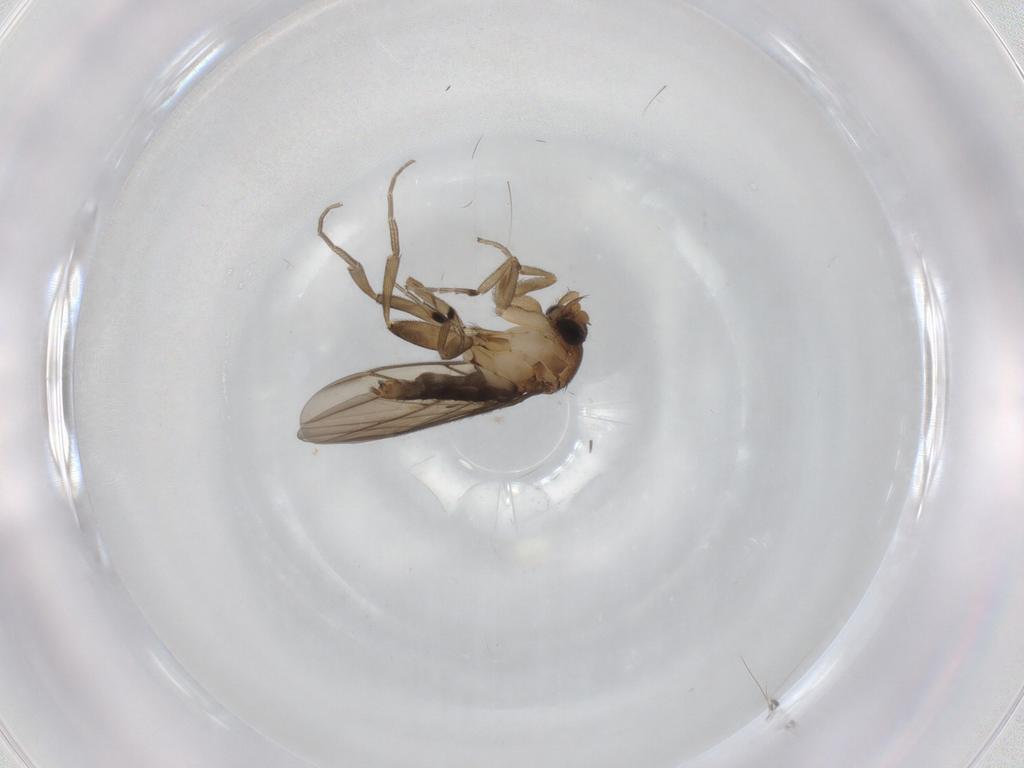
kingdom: Animalia
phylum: Arthropoda
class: Insecta
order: Diptera
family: Phoridae
